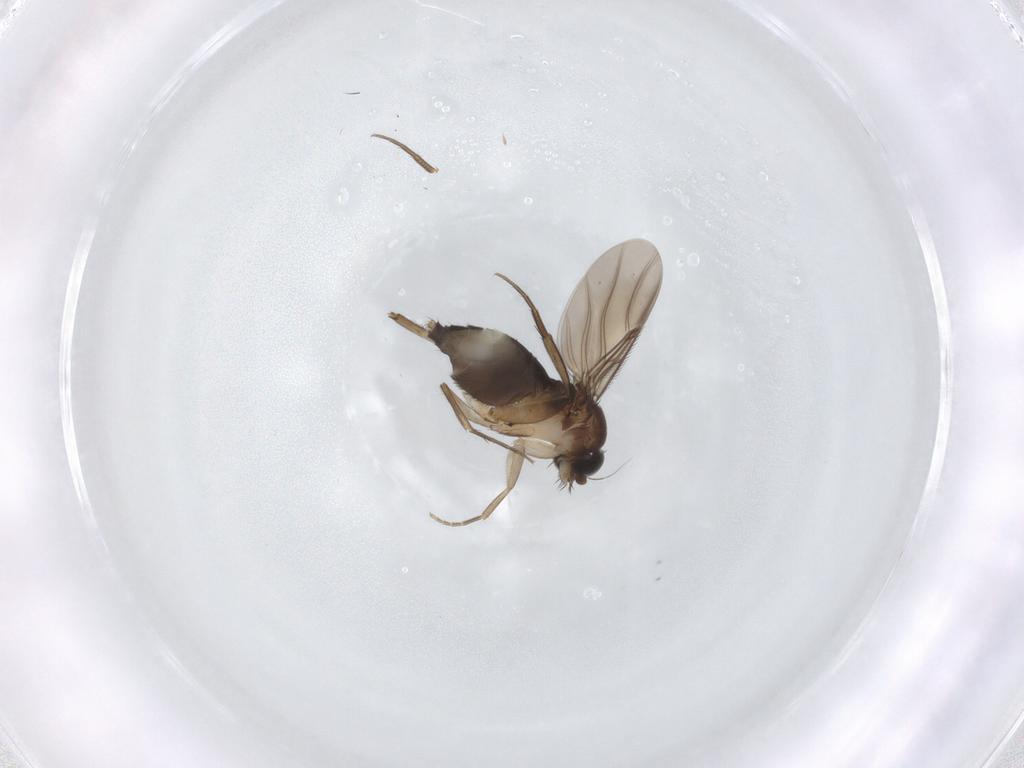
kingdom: Animalia
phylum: Arthropoda
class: Insecta
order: Diptera
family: Phoridae
